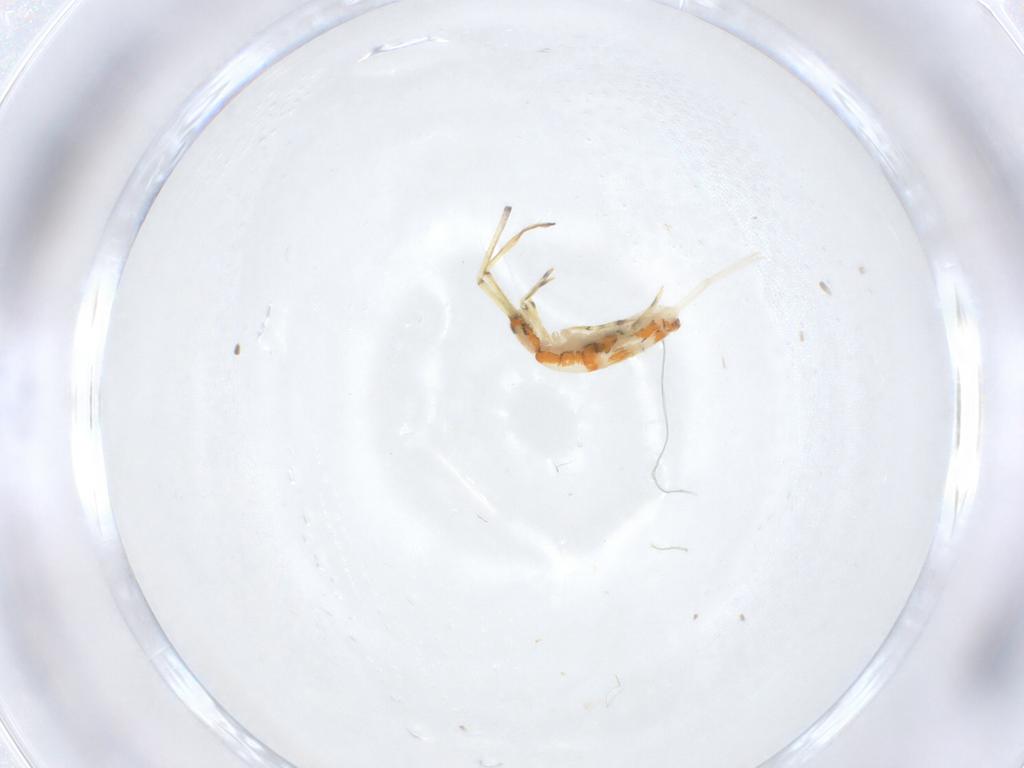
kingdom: Animalia
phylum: Arthropoda
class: Collembola
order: Entomobryomorpha
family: Paronellidae
